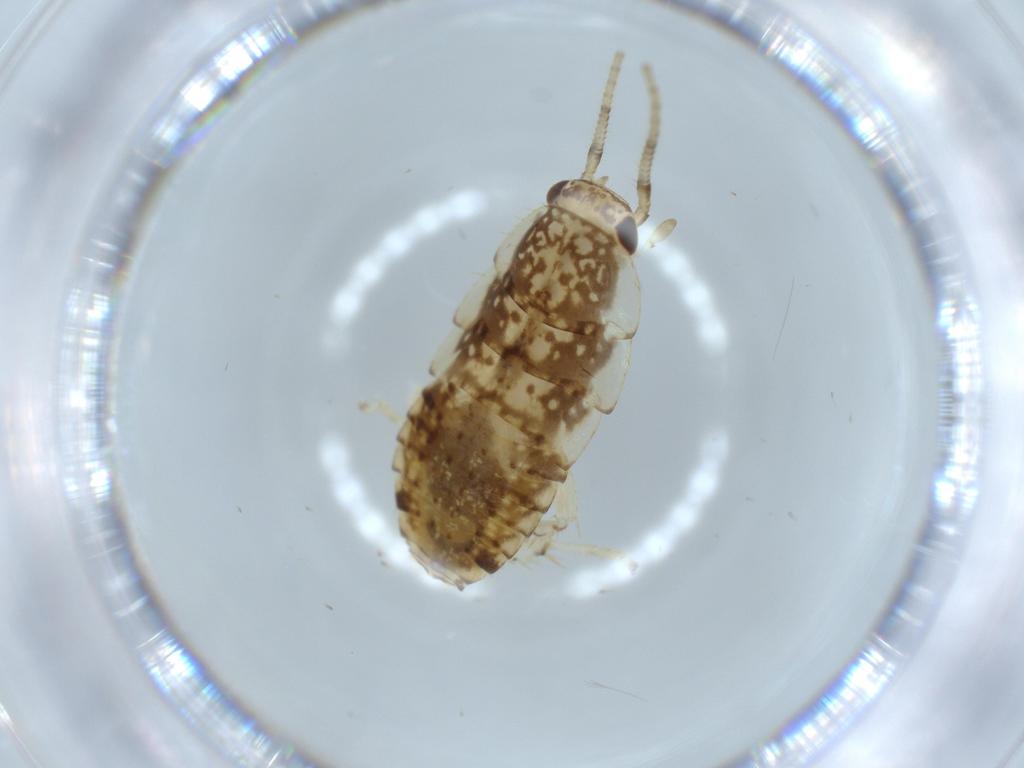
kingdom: Animalia
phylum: Arthropoda
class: Insecta
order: Blattodea
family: Ectobiidae
